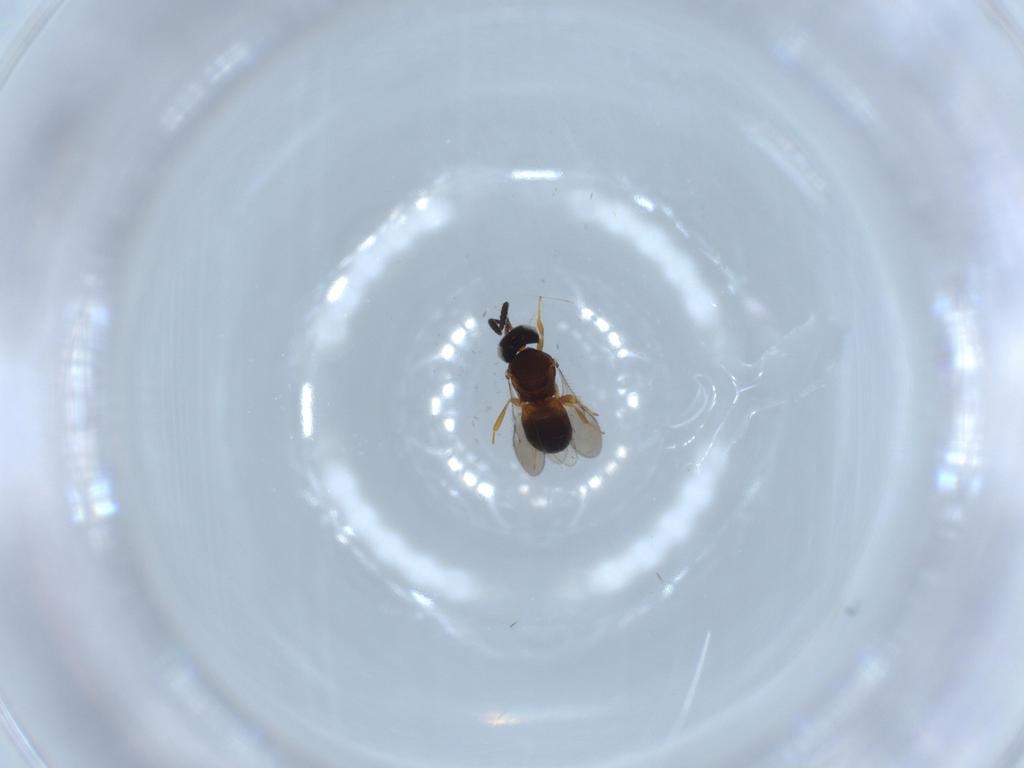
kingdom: Animalia
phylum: Arthropoda
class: Insecta
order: Hymenoptera
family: Scelionidae
